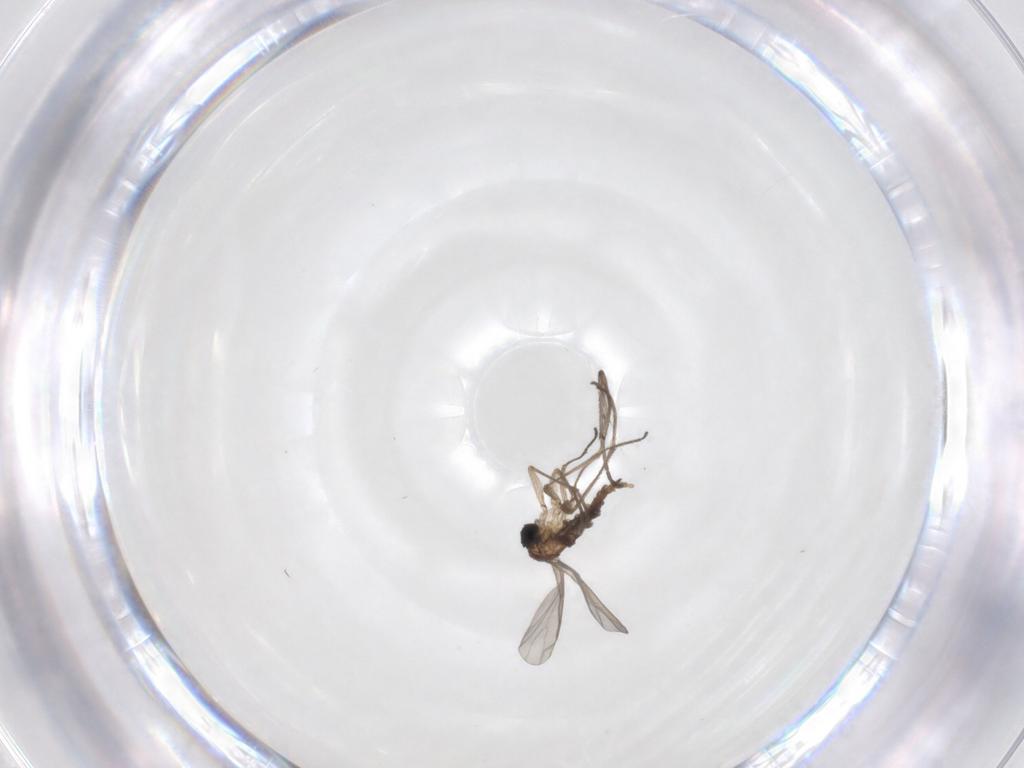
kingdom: Animalia
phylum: Arthropoda
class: Insecta
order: Diptera
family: Sciaridae
